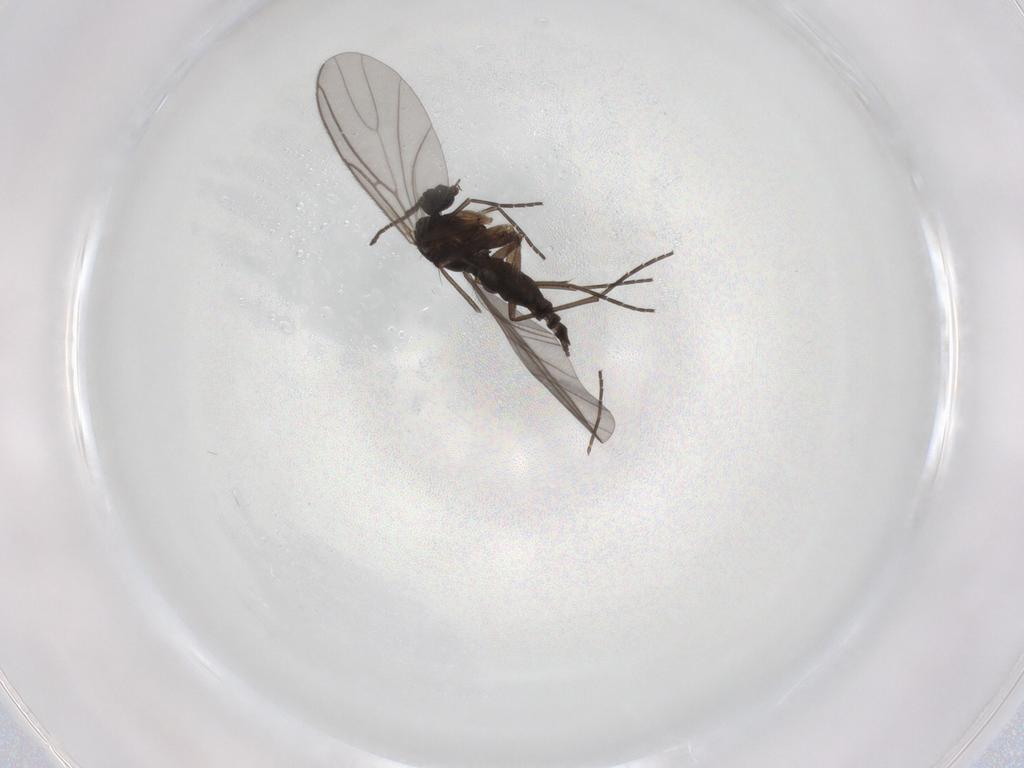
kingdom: Animalia
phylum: Arthropoda
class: Insecta
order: Diptera
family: Sciaridae
